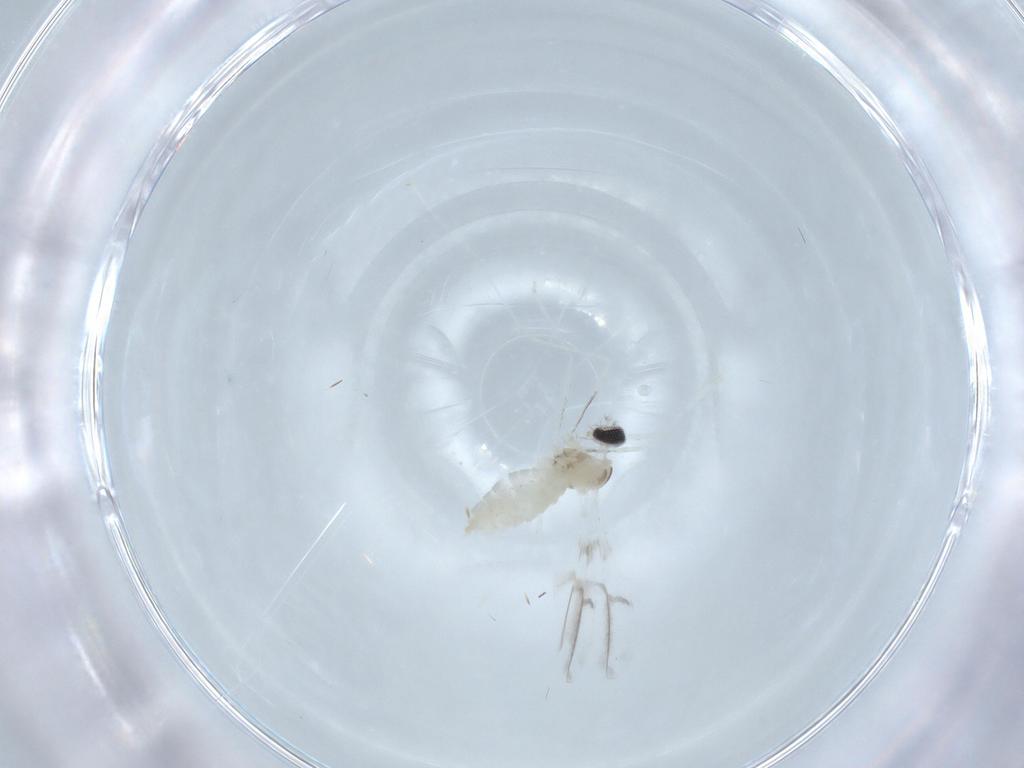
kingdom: Animalia
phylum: Arthropoda
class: Insecta
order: Diptera
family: Cecidomyiidae
